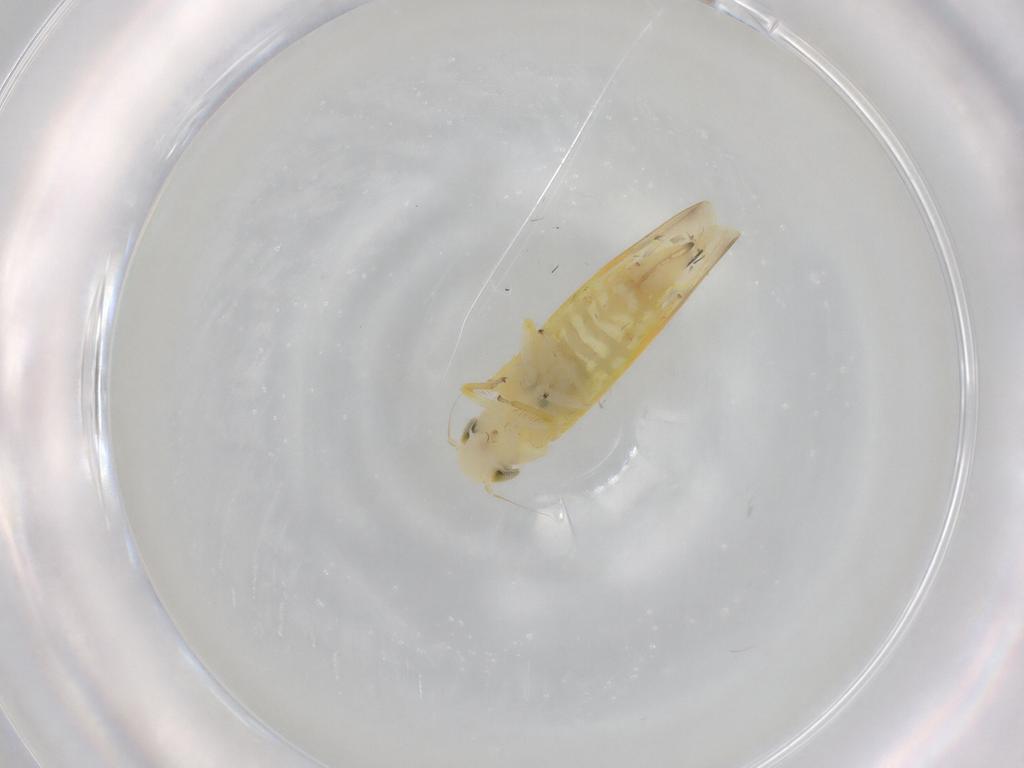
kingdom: Animalia
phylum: Arthropoda
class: Insecta
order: Hemiptera
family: Cicadellidae
